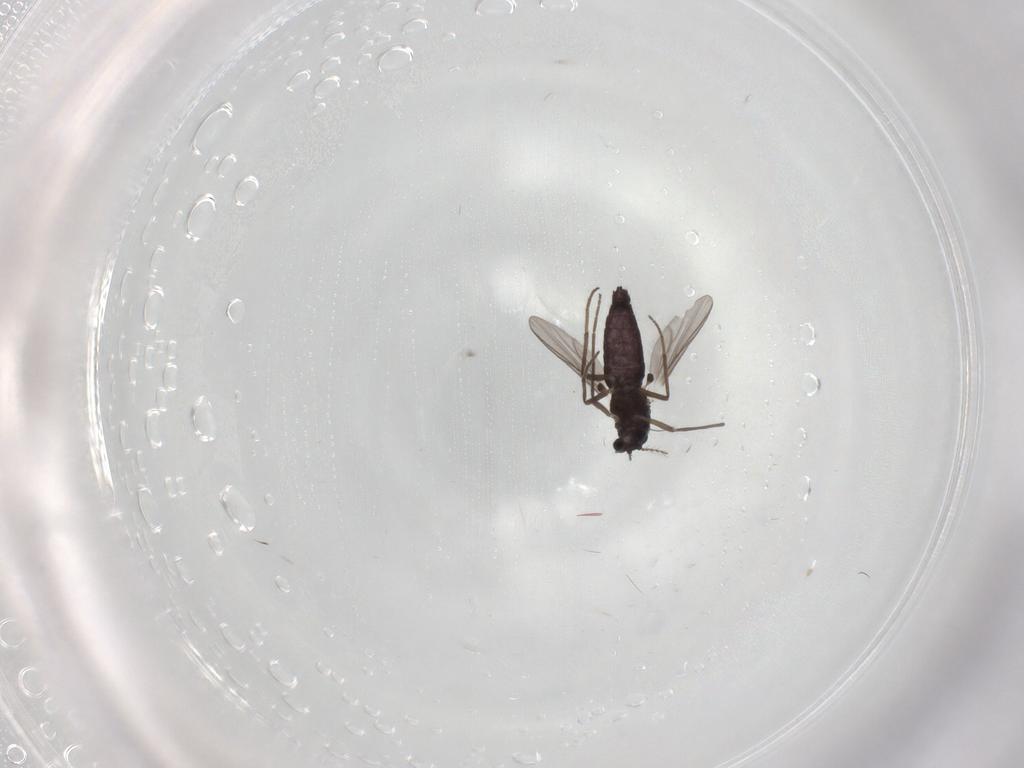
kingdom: Animalia
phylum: Arthropoda
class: Insecta
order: Diptera
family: Chironomidae
